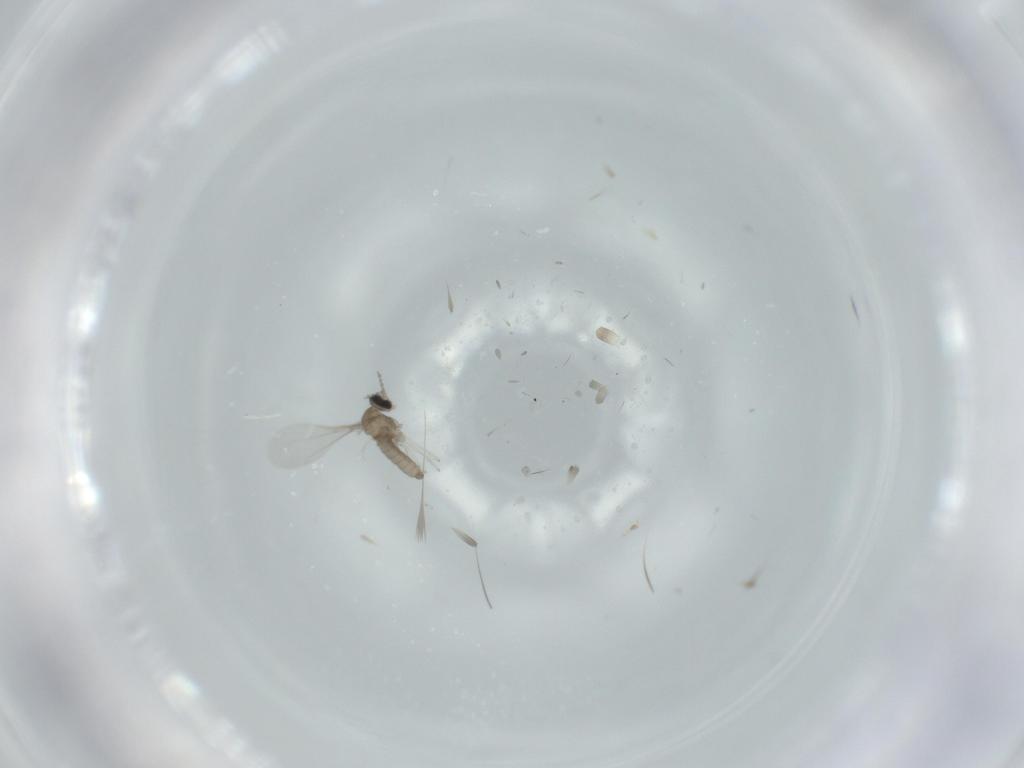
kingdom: Animalia
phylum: Arthropoda
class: Insecta
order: Diptera
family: Cecidomyiidae
